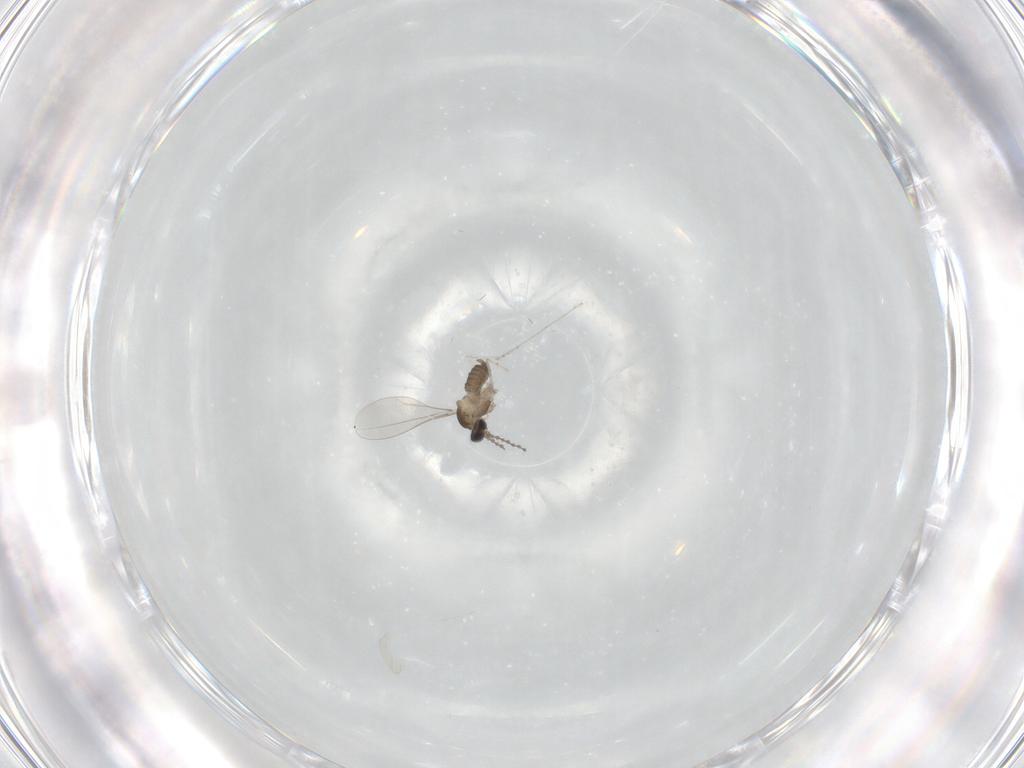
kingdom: Animalia
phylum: Arthropoda
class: Insecta
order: Diptera
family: Cecidomyiidae
